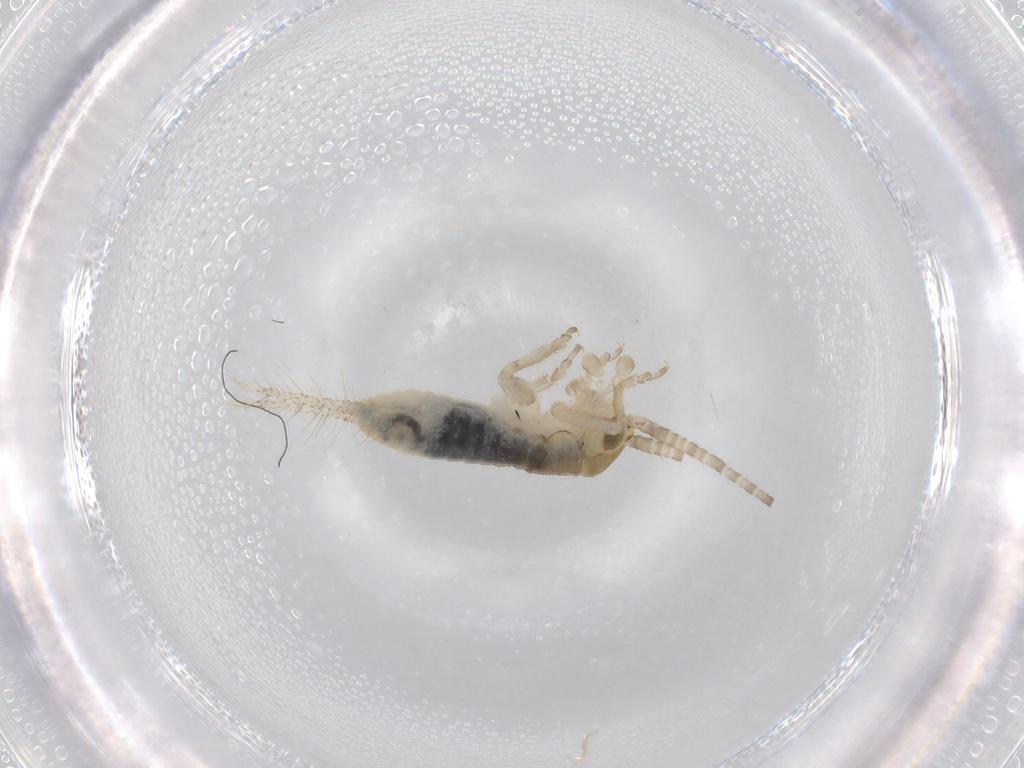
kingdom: Animalia
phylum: Arthropoda
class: Insecta
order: Orthoptera
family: Gryllidae
